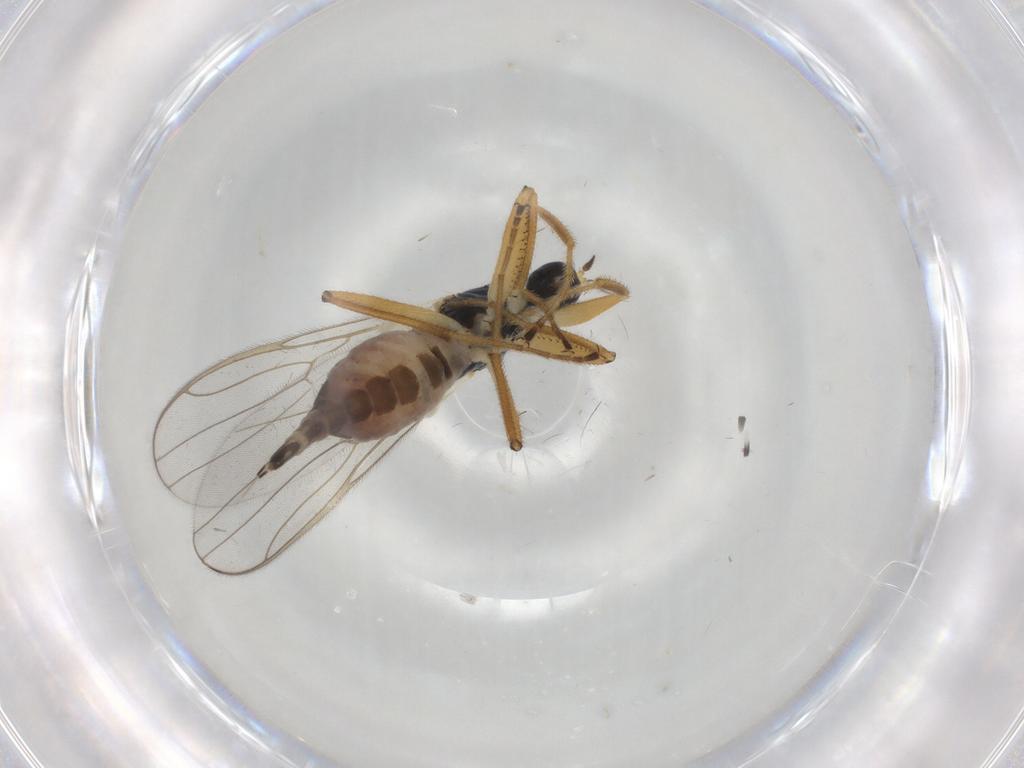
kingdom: Animalia
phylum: Arthropoda
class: Insecta
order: Diptera
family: Hybotidae
